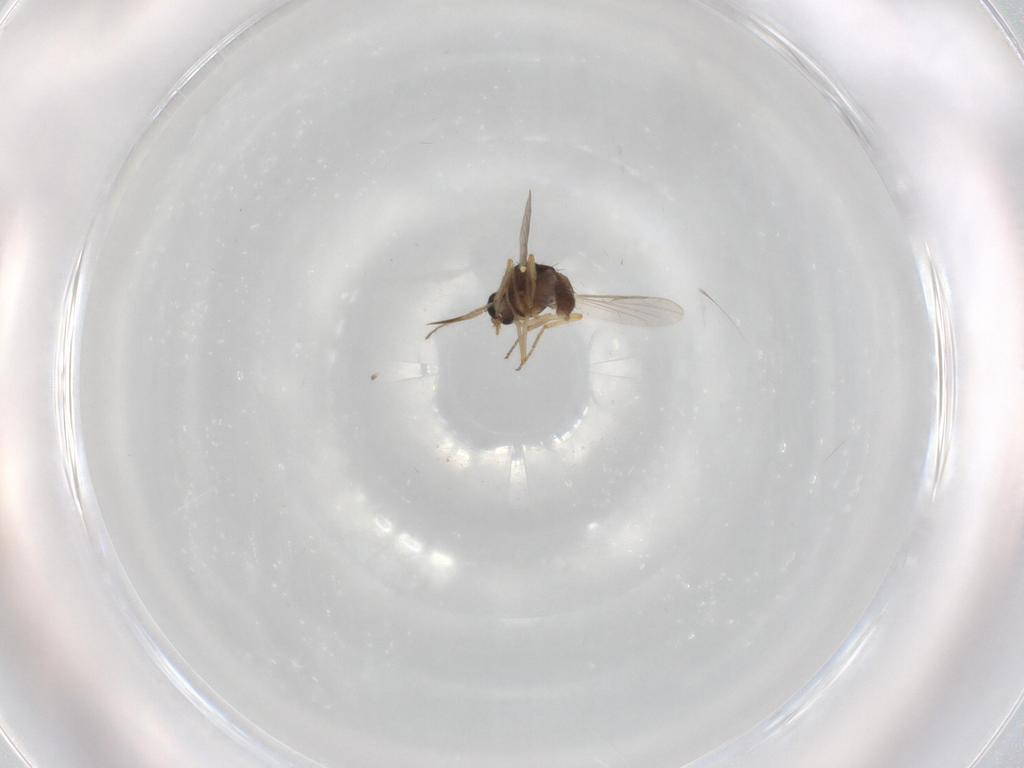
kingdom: Animalia
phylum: Arthropoda
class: Insecta
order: Diptera
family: Ceratopogonidae
